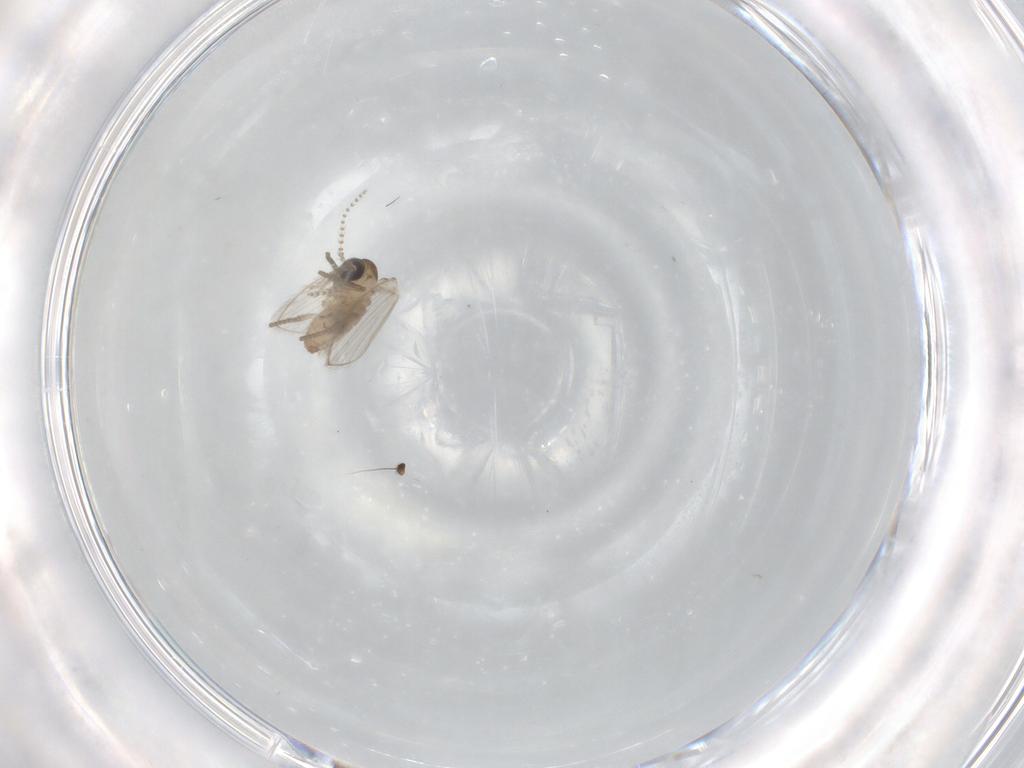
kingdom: Animalia
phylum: Arthropoda
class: Insecta
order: Diptera
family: Psychodidae
